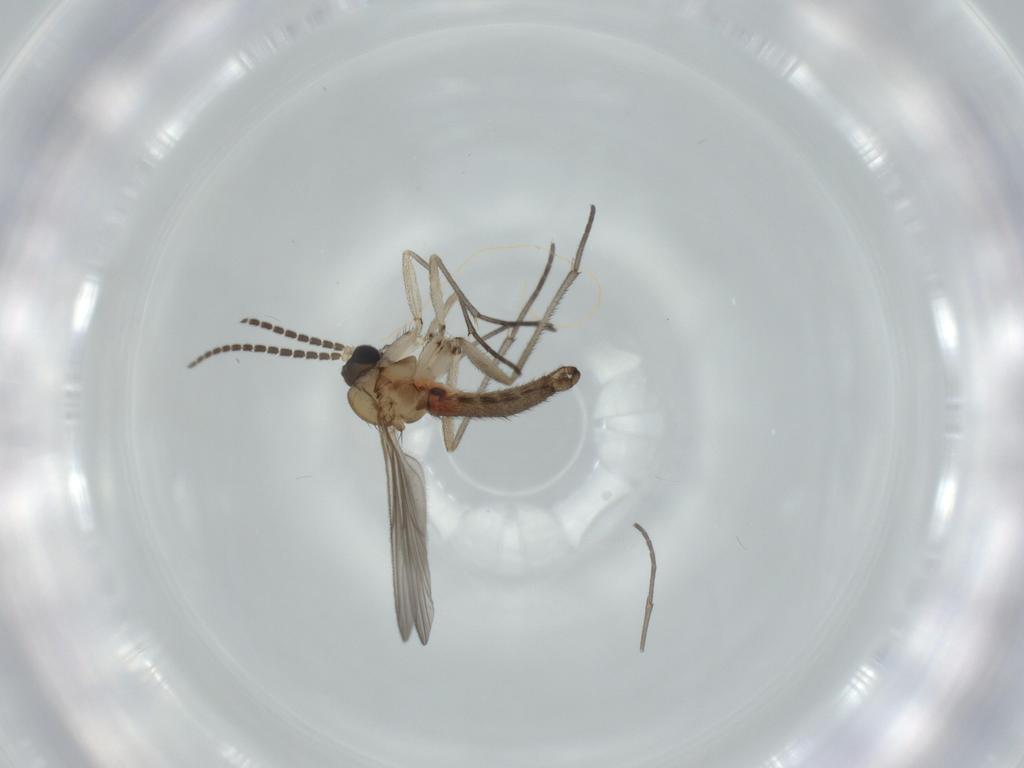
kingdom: Animalia
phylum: Arthropoda
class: Insecta
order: Diptera
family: Sciaridae
